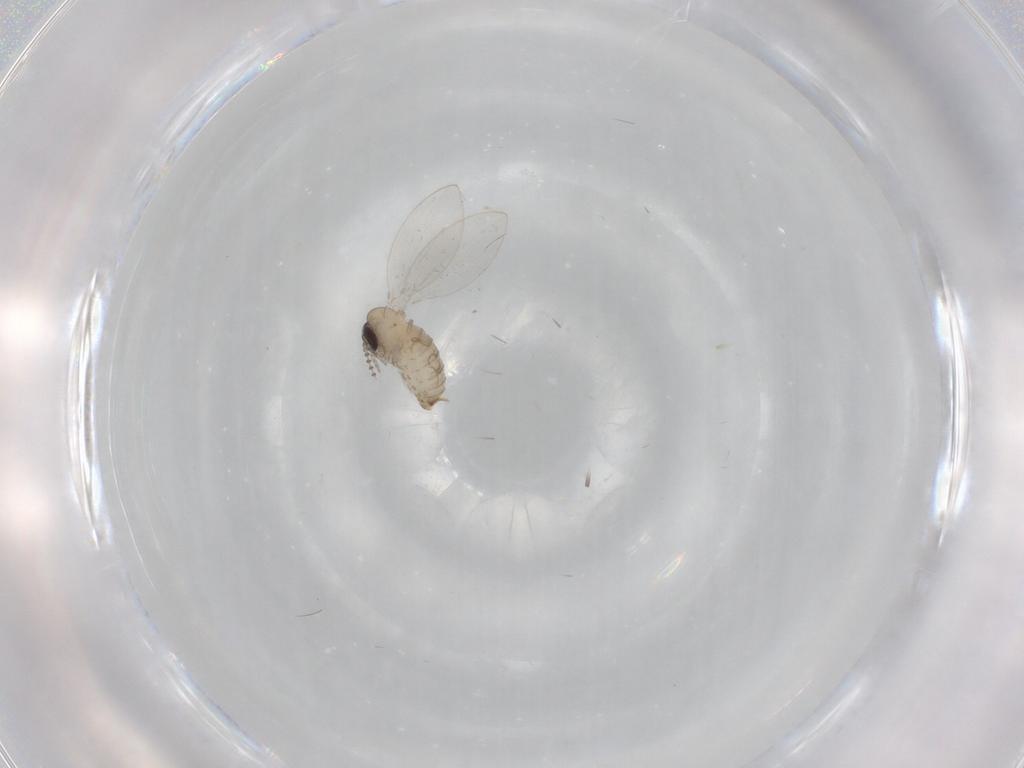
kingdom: Animalia
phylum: Arthropoda
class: Insecta
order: Diptera
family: Psychodidae
